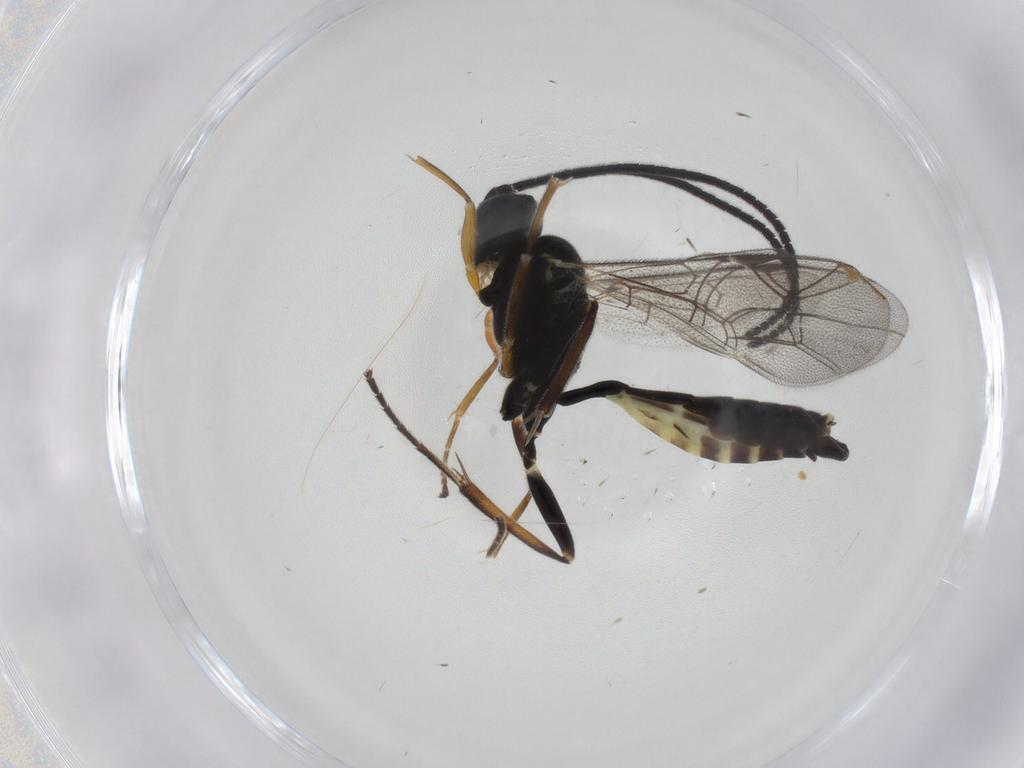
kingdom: Animalia
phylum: Arthropoda
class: Insecta
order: Hymenoptera
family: Ichneumonidae
